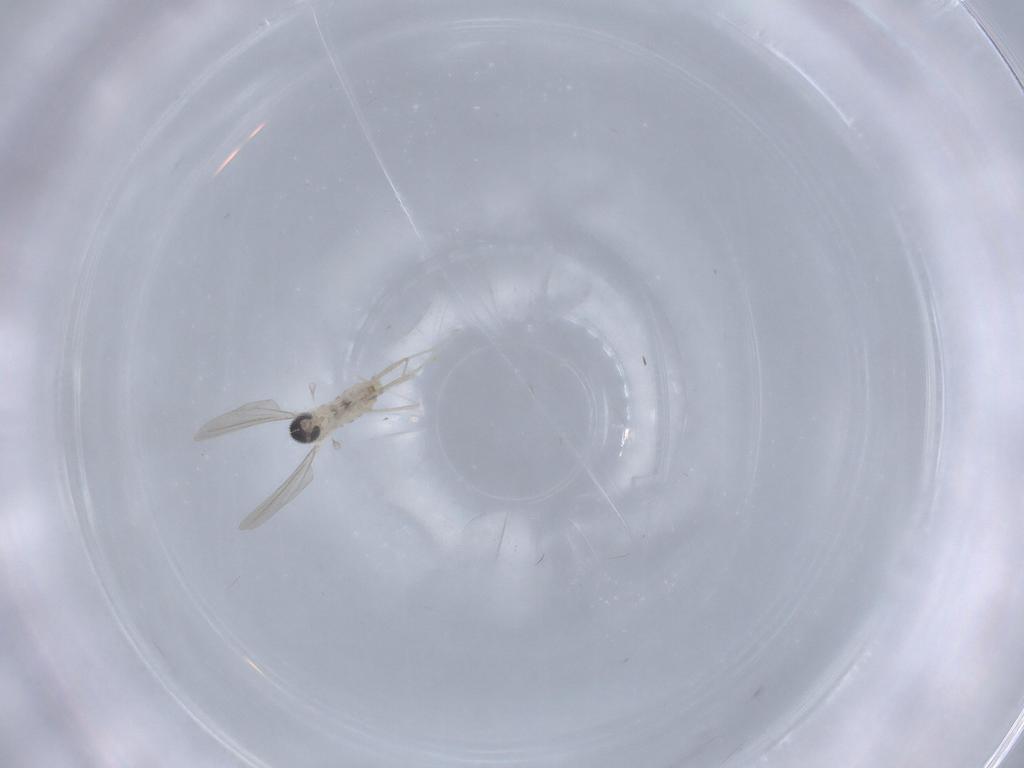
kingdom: Animalia
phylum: Arthropoda
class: Insecta
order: Diptera
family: Cecidomyiidae
